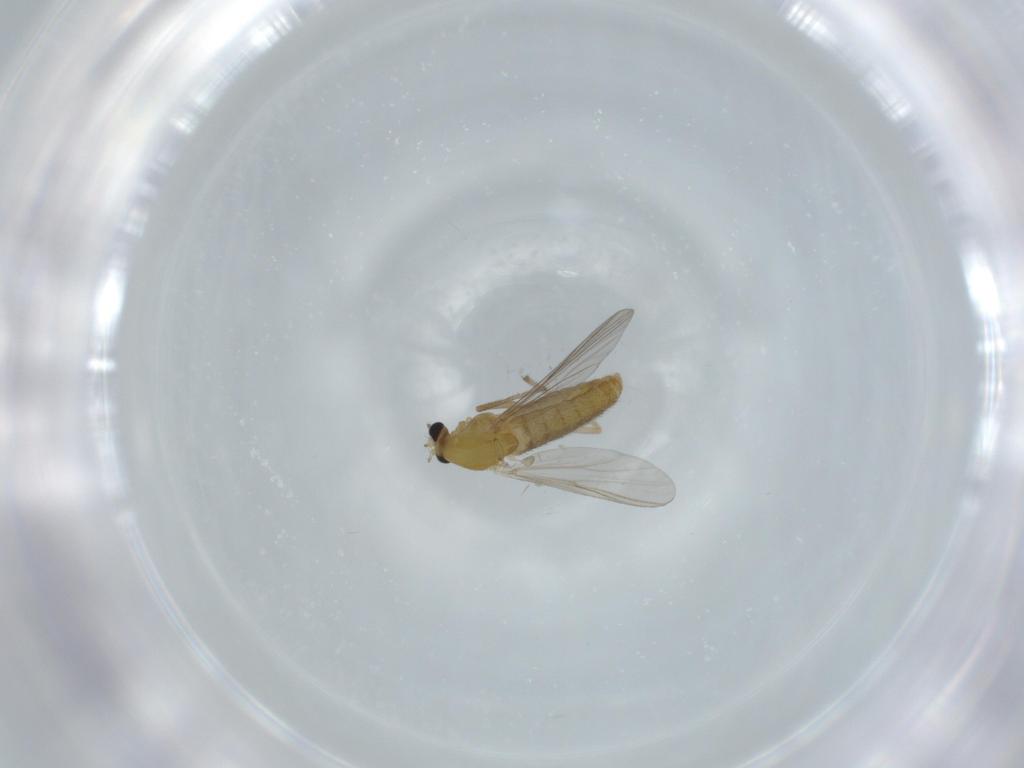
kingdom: Animalia
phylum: Arthropoda
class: Insecta
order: Diptera
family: Chironomidae
